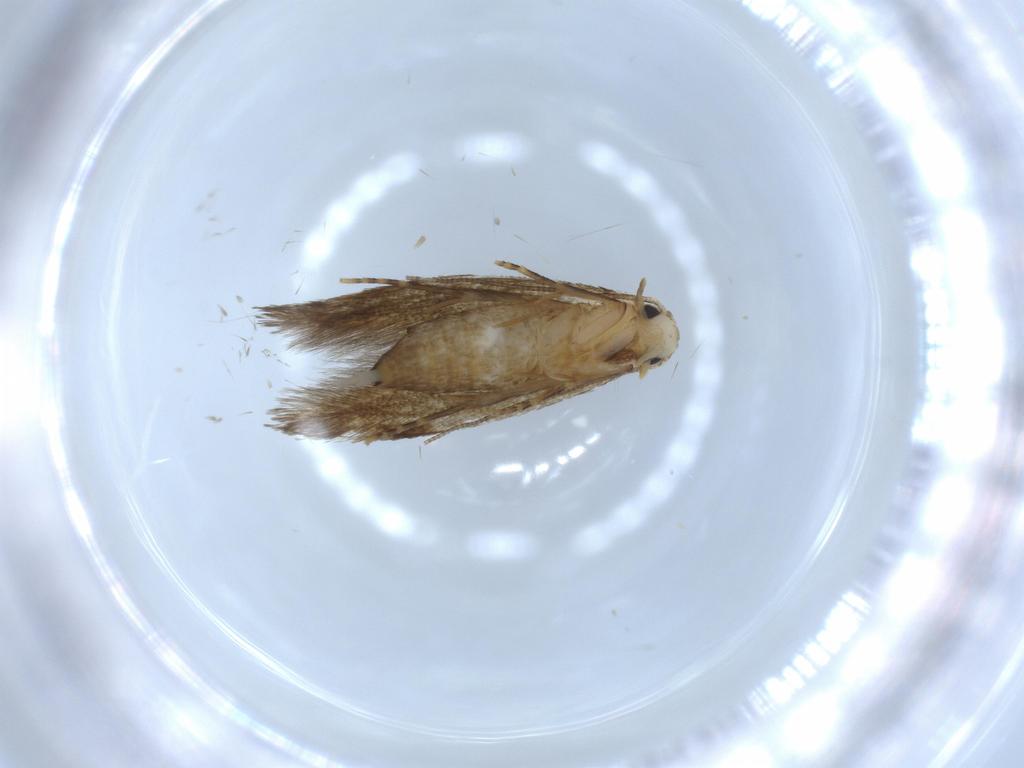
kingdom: Animalia
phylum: Arthropoda
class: Insecta
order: Lepidoptera
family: Tineidae
